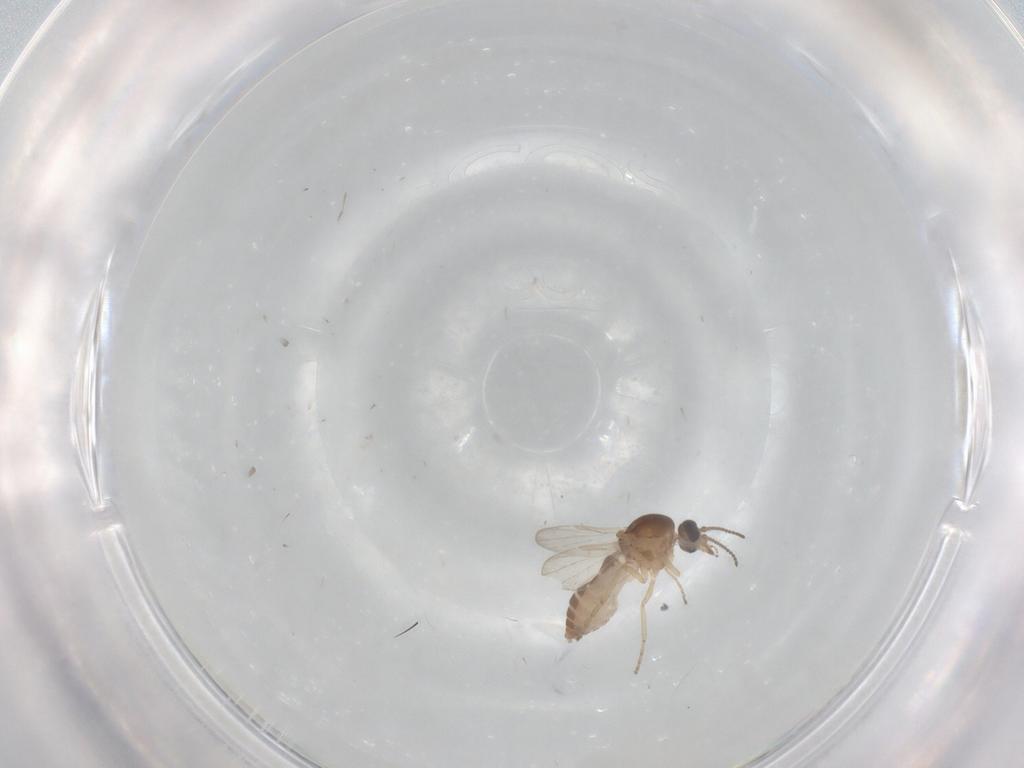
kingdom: Animalia
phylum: Arthropoda
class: Insecta
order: Diptera
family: Ceratopogonidae
